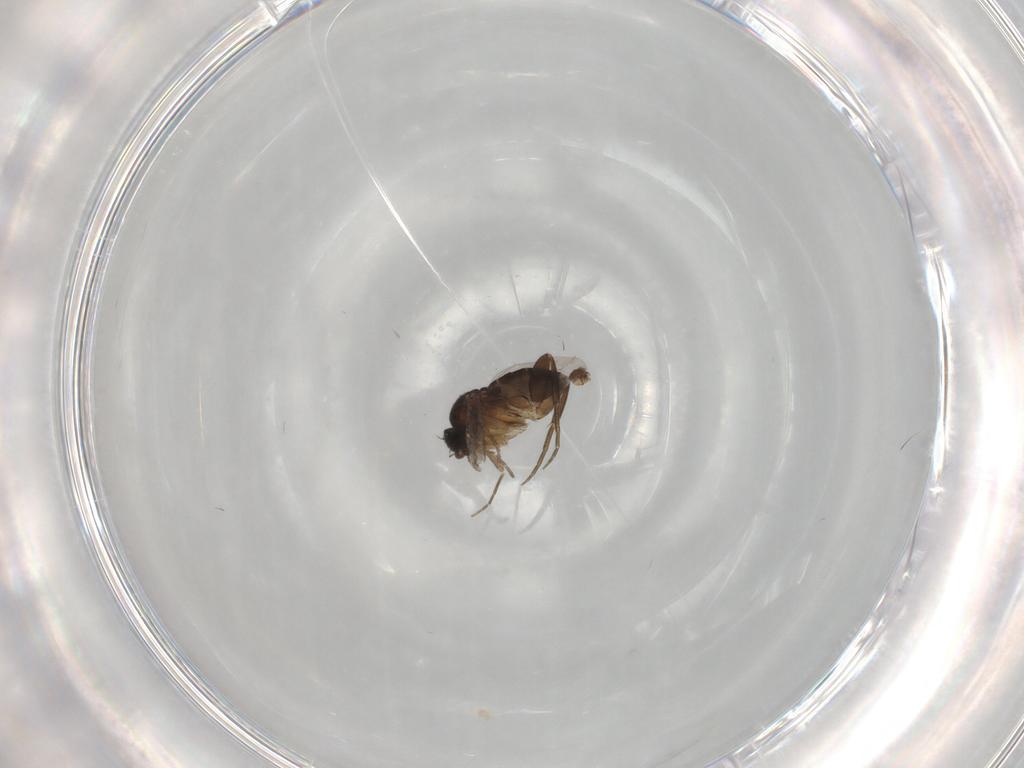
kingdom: Animalia
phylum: Arthropoda
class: Insecta
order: Diptera
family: Phoridae
